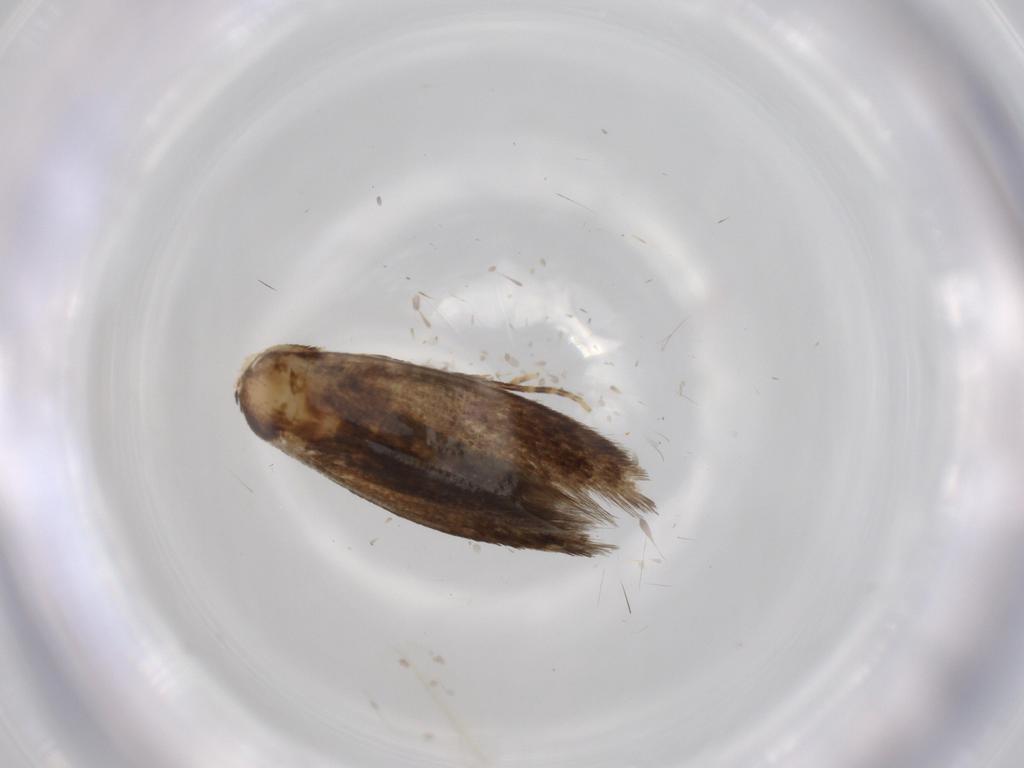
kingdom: Animalia
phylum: Arthropoda
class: Insecta
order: Lepidoptera
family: Tineidae
